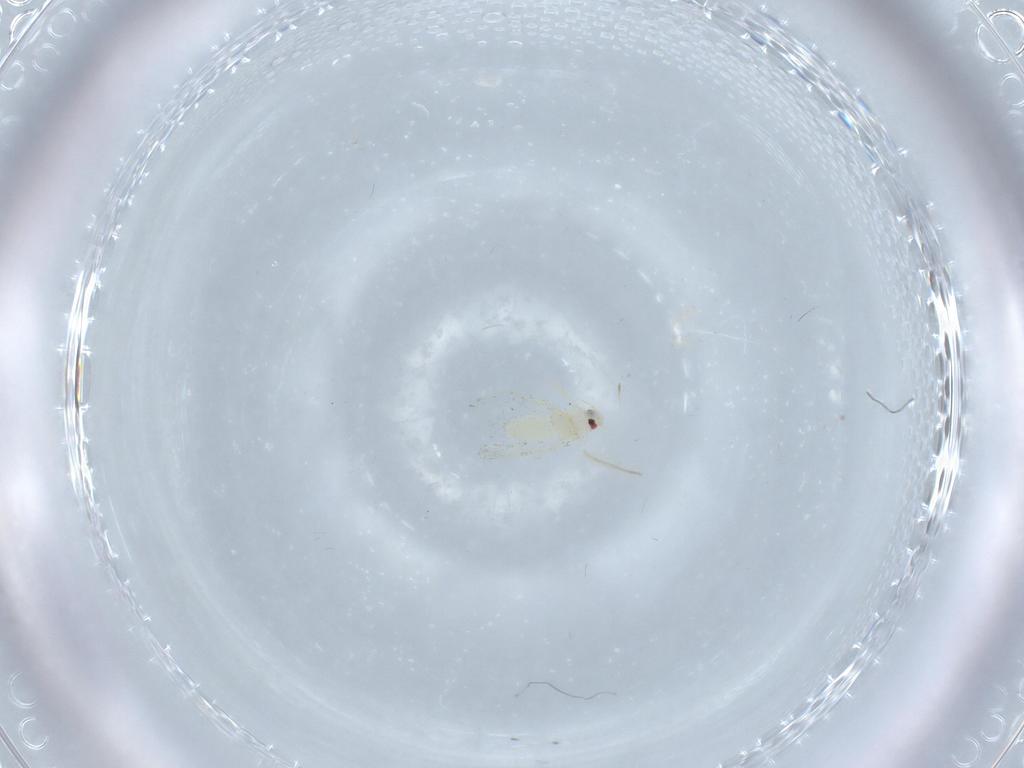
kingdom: Animalia
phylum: Arthropoda
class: Insecta
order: Hemiptera
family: Aleyrodidae
